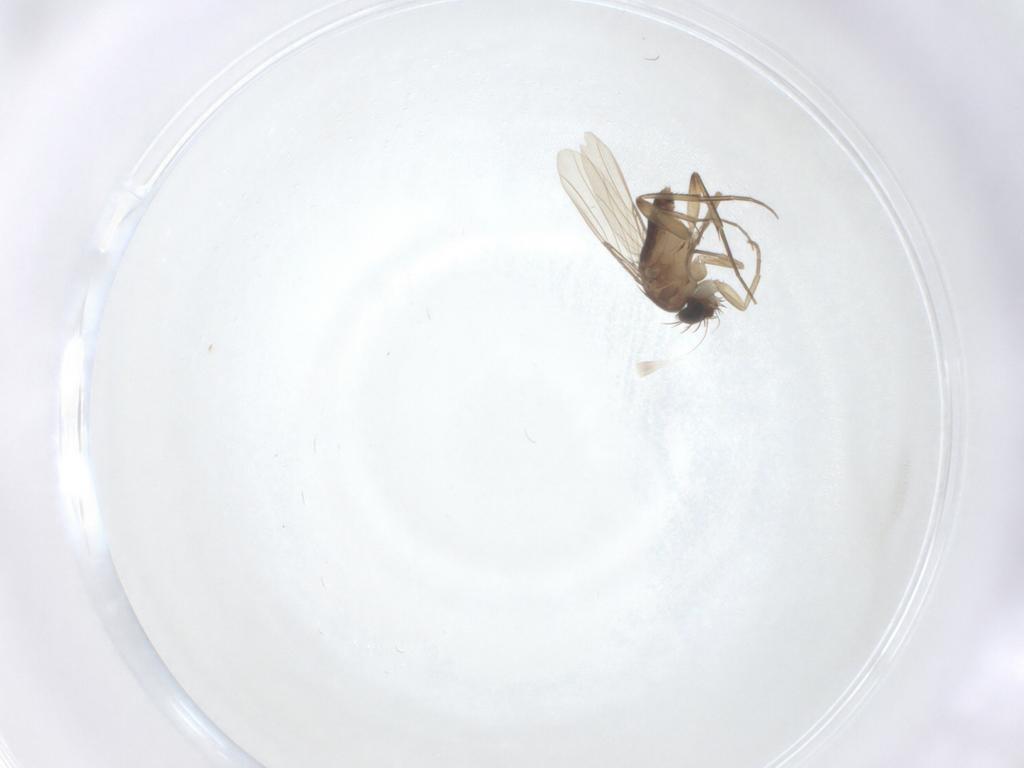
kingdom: Animalia
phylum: Arthropoda
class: Insecta
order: Diptera
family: Phoridae
